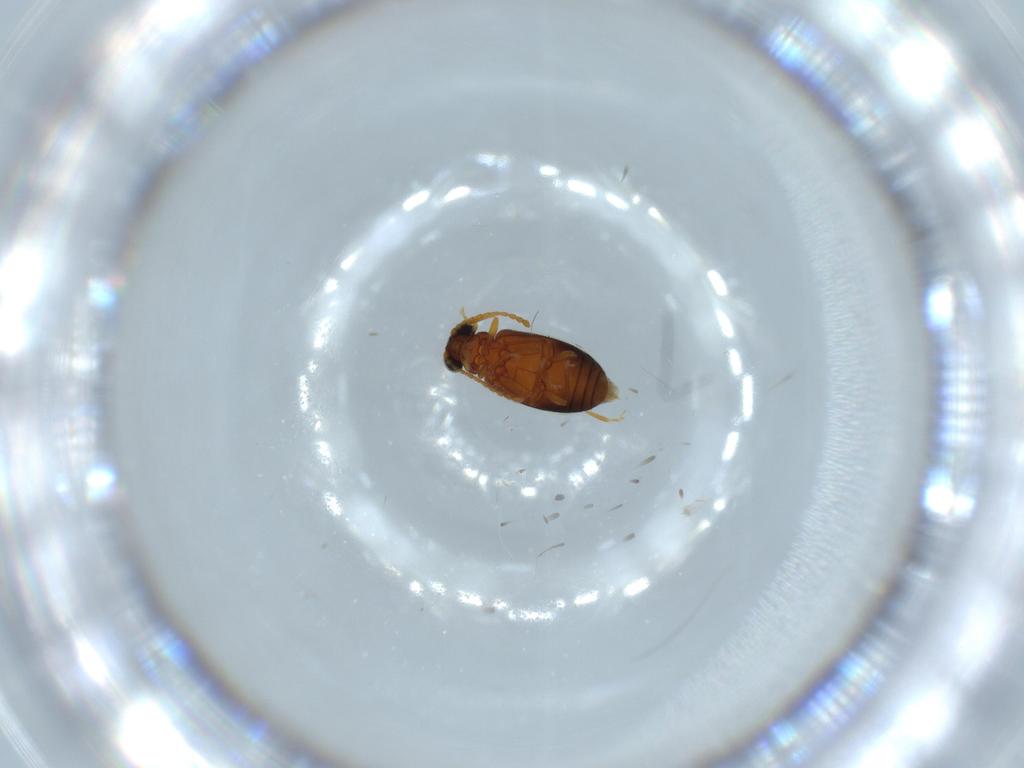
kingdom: Animalia
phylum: Arthropoda
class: Insecta
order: Coleoptera
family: Aderidae
